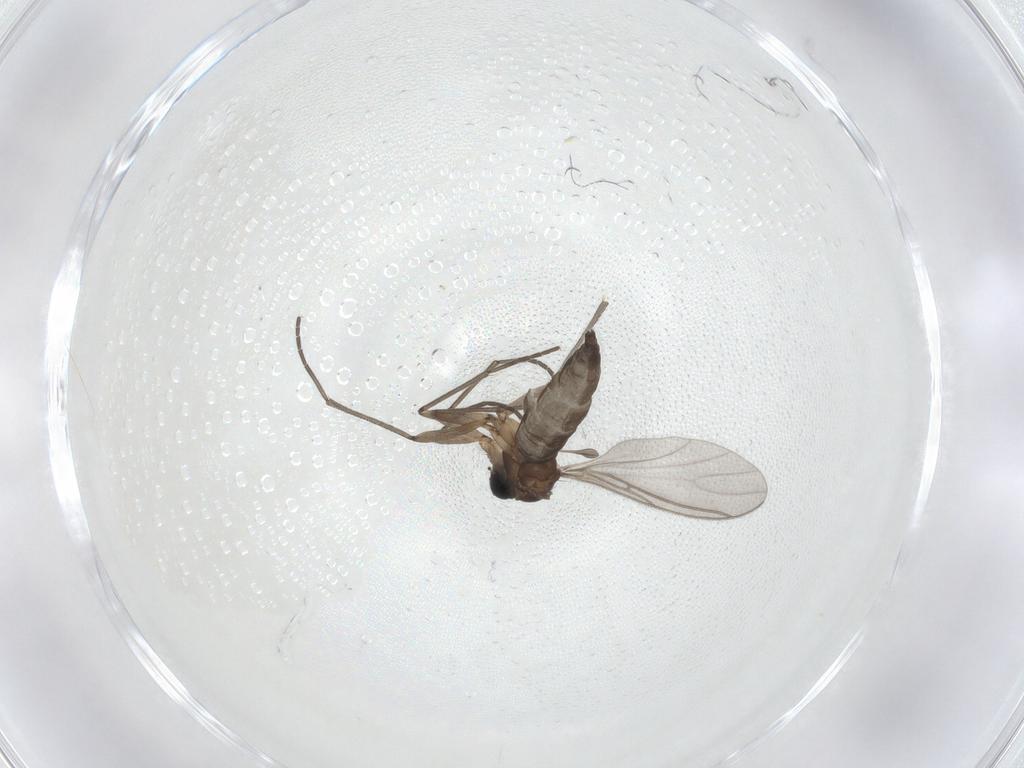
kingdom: Animalia
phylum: Arthropoda
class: Insecta
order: Diptera
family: Sciaridae
